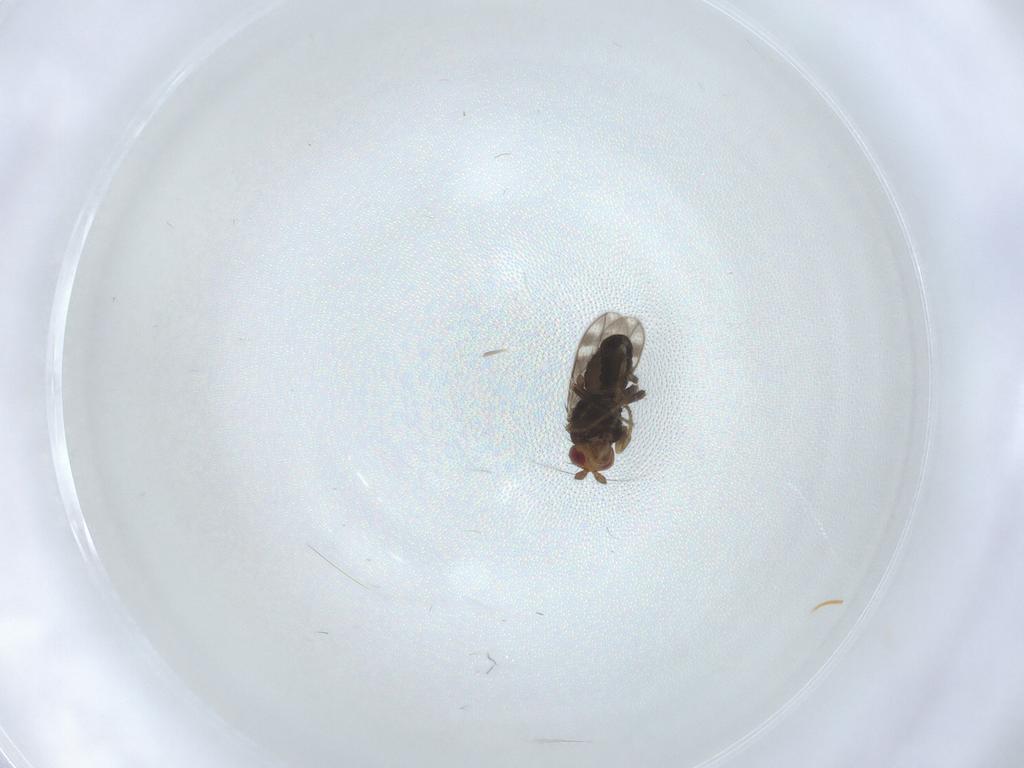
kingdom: Animalia
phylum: Arthropoda
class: Insecta
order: Diptera
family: Sphaeroceridae
